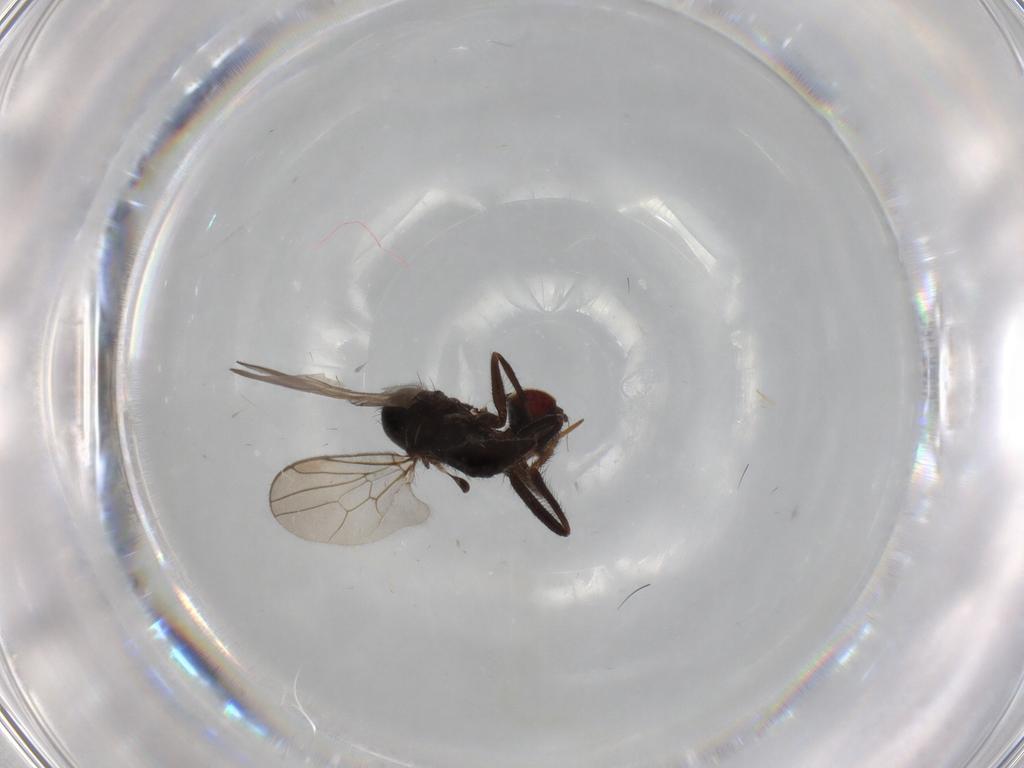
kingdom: Animalia
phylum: Arthropoda
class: Insecta
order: Diptera
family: Hybotidae
